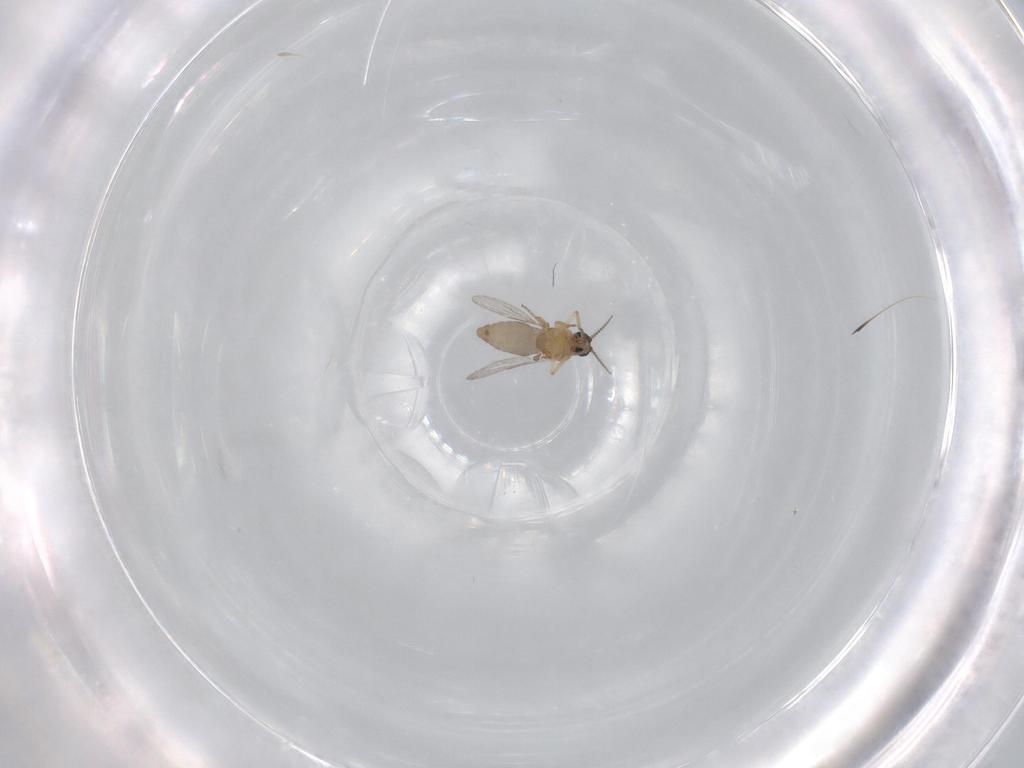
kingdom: Animalia
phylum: Arthropoda
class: Insecta
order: Diptera
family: Ceratopogonidae
